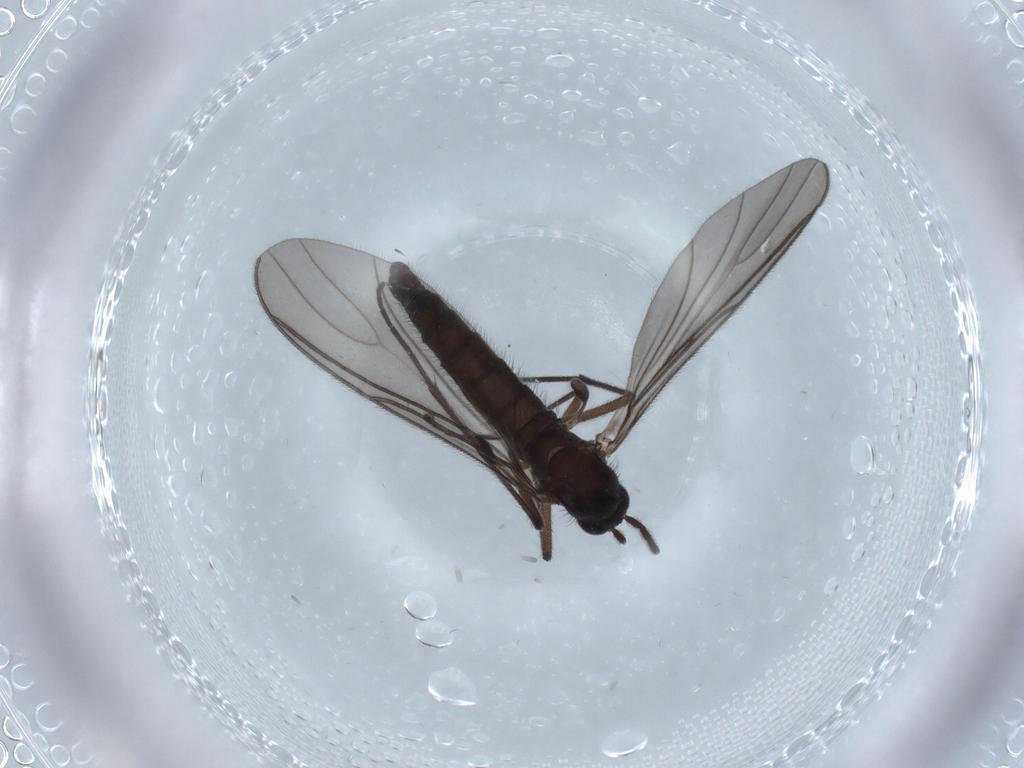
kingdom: Animalia
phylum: Arthropoda
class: Insecta
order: Diptera
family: Sciaridae
